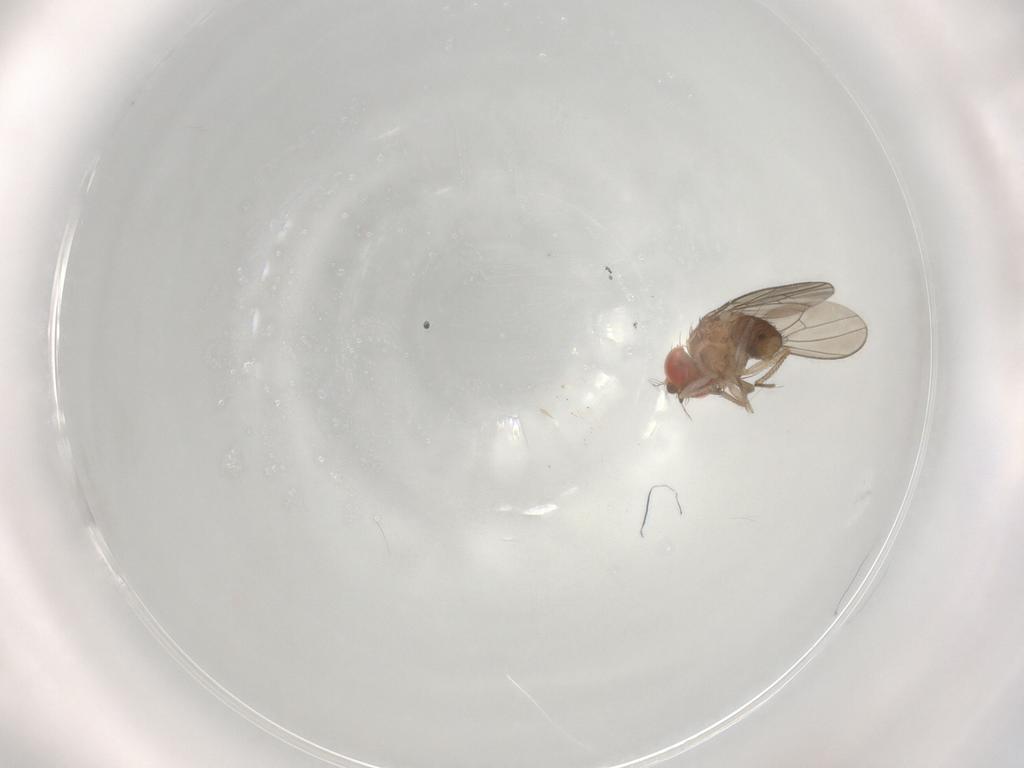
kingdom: Animalia
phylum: Arthropoda
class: Insecta
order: Diptera
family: Drosophilidae
